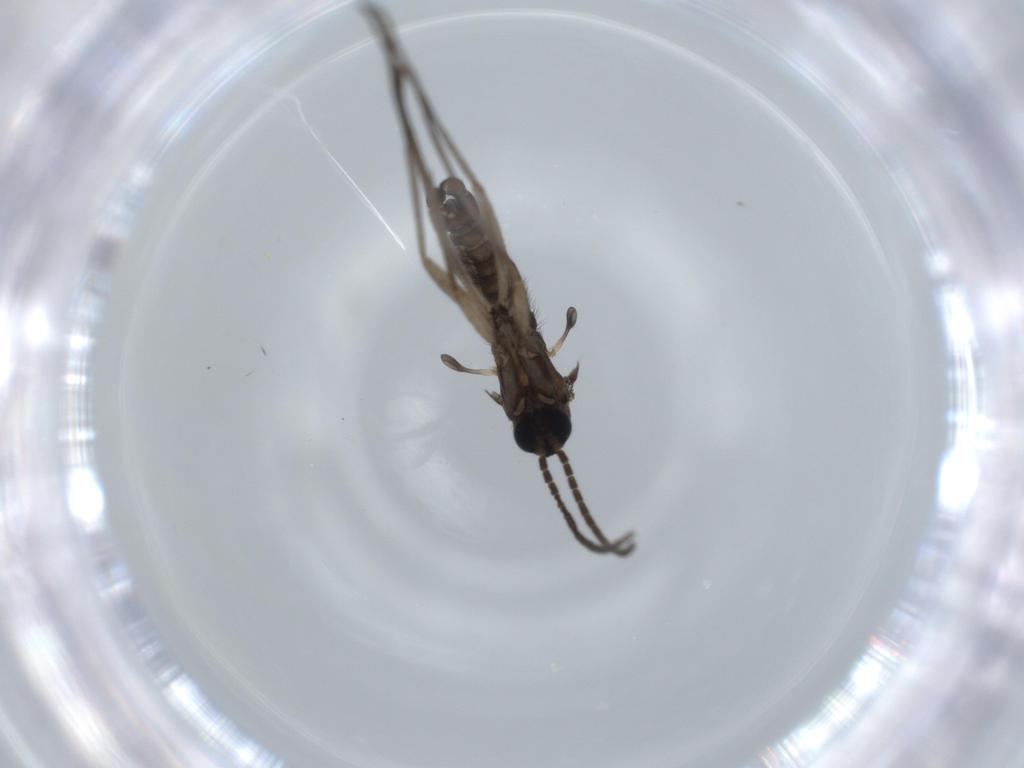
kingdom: Animalia
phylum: Arthropoda
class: Insecta
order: Diptera
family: Sciaridae
